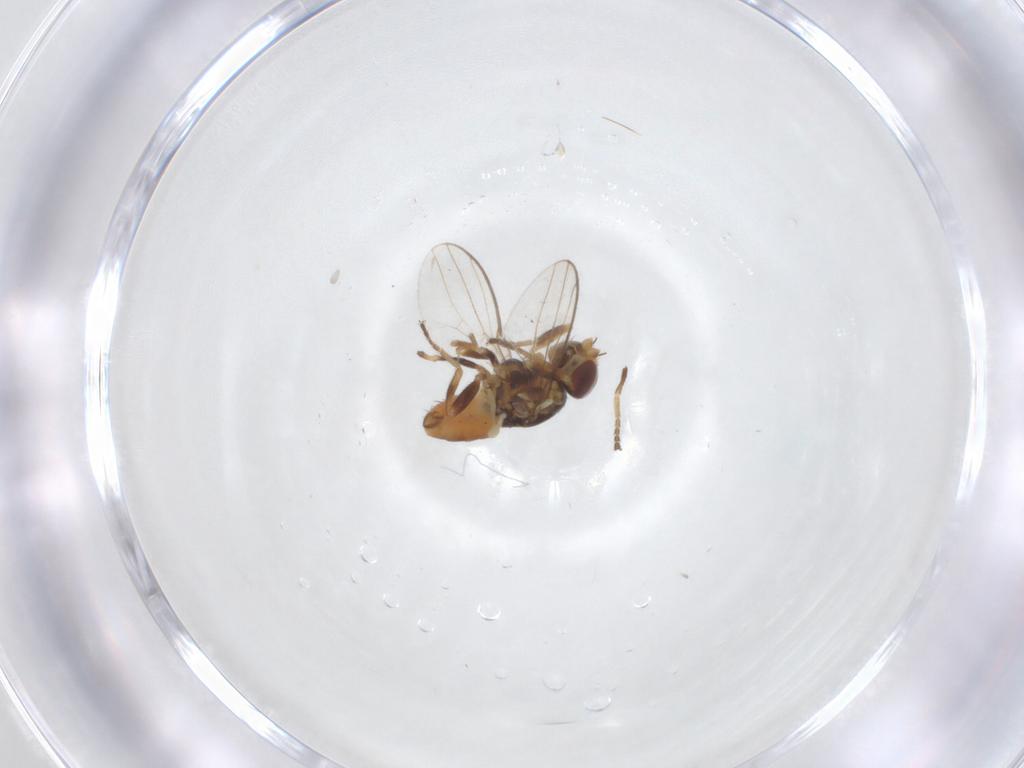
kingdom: Animalia
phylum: Arthropoda
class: Insecta
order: Diptera
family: Chloropidae
